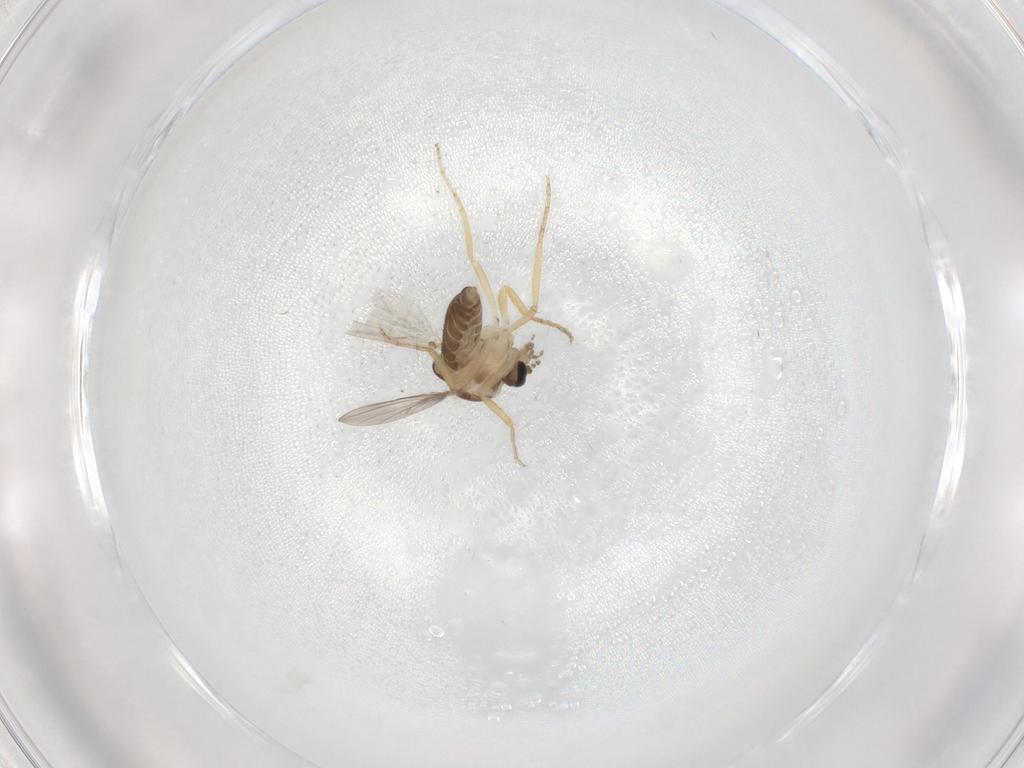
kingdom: Animalia
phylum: Arthropoda
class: Insecta
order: Diptera
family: Ceratopogonidae
